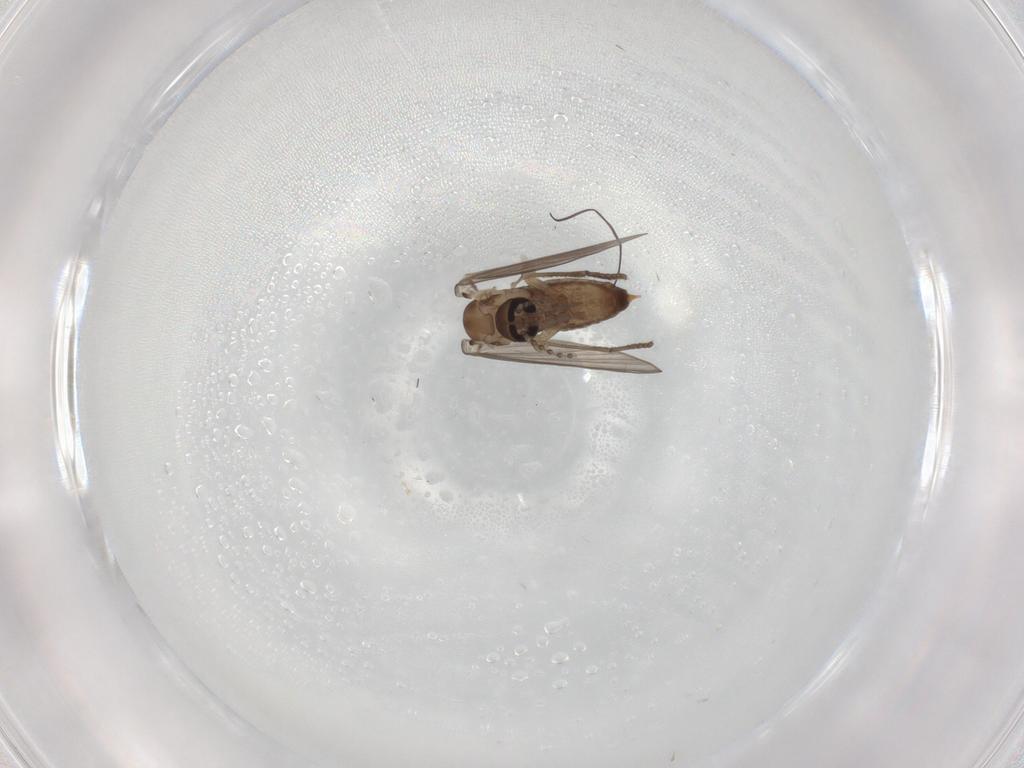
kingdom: Animalia
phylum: Arthropoda
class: Insecta
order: Diptera
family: Psychodidae
